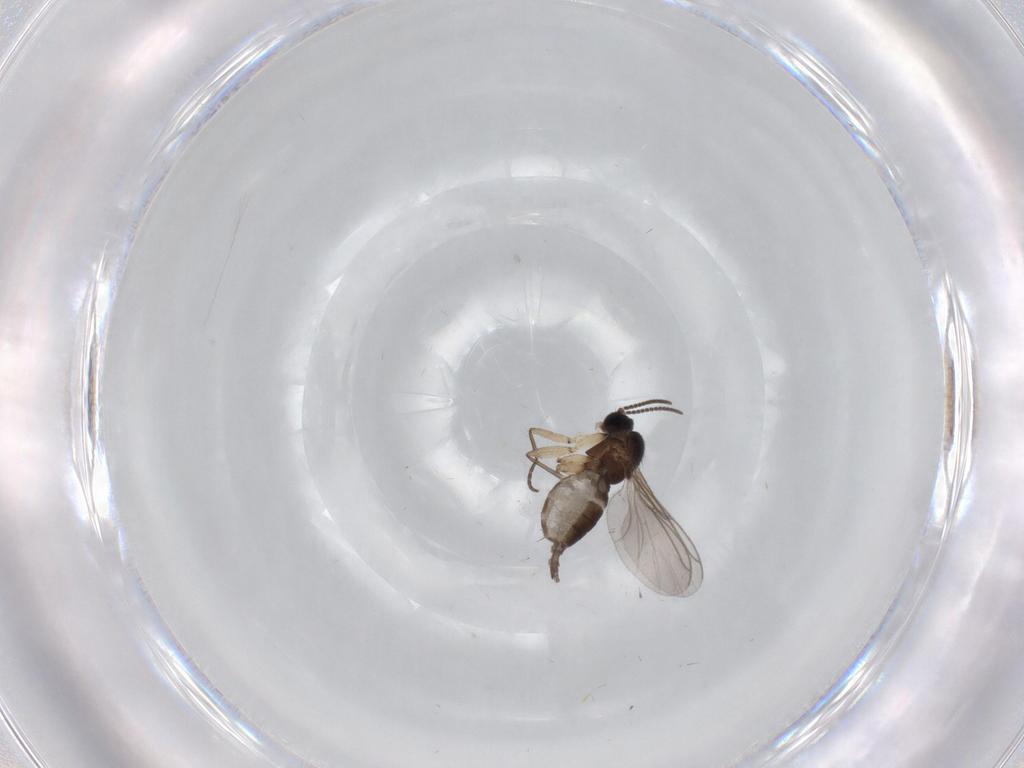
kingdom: Animalia
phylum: Arthropoda
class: Insecta
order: Diptera
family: Sciaridae
